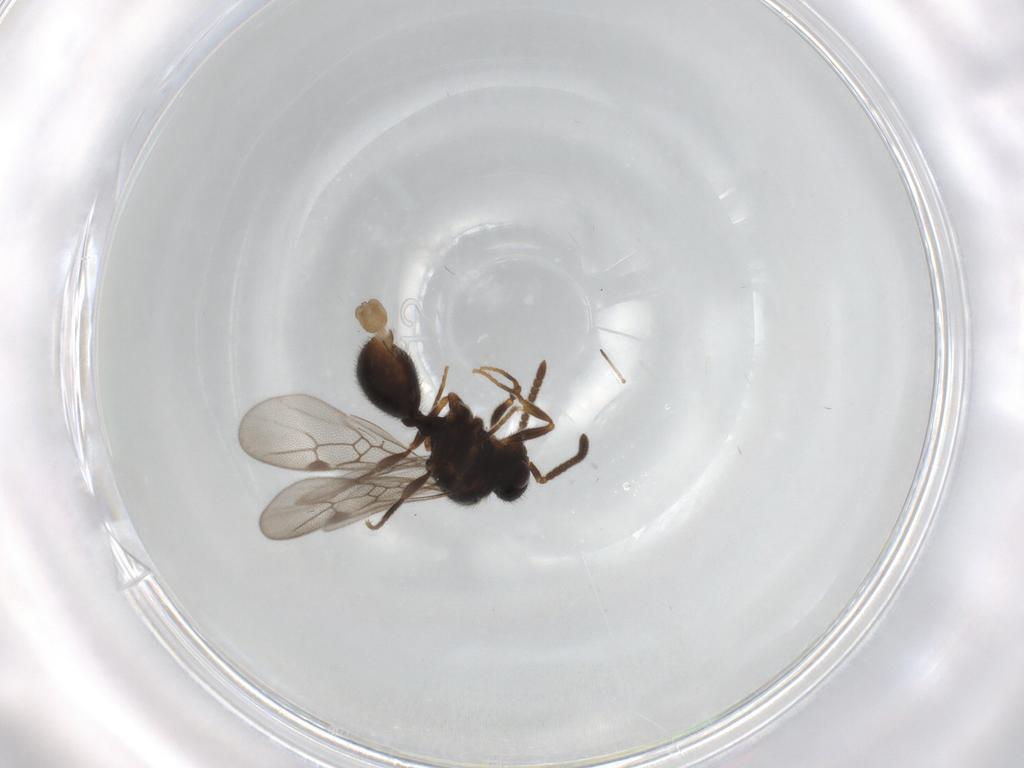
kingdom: Animalia
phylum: Arthropoda
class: Insecta
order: Hymenoptera
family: Formicidae
